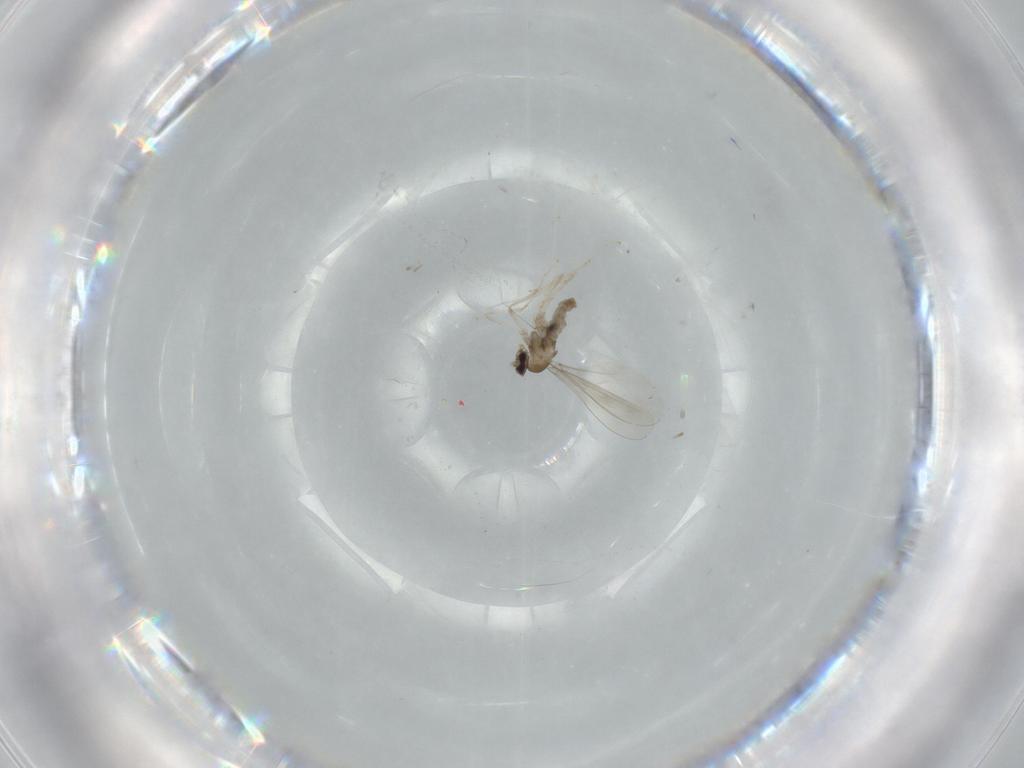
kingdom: Animalia
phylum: Arthropoda
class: Insecta
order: Diptera
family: Cecidomyiidae
